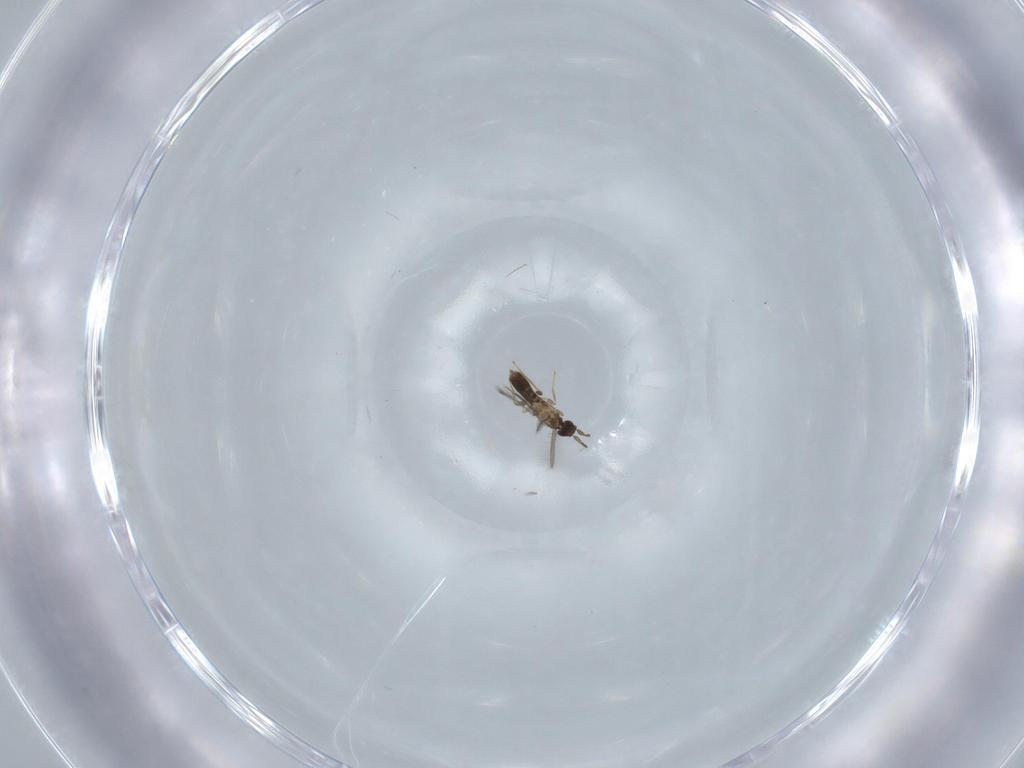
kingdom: Animalia
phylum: Arthropoda
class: Insecta
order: Hymenoptera
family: Mymaridae
